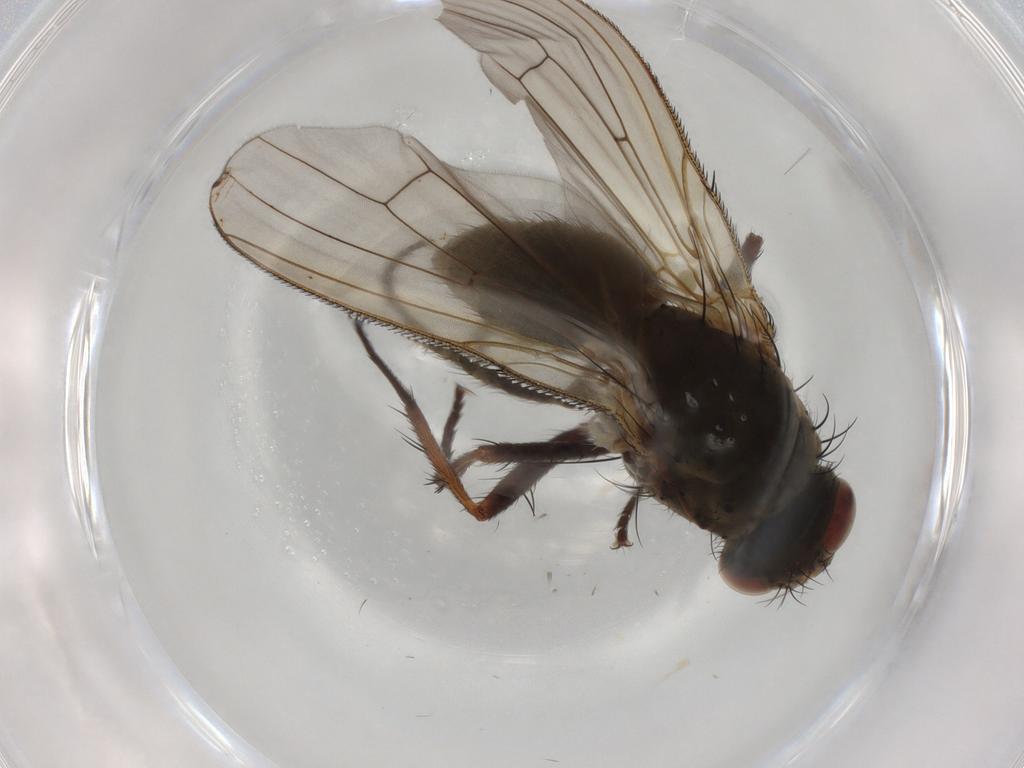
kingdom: Animalia
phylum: Arthropoda
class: Insecta
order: Diptera
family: Anthomyiidae
